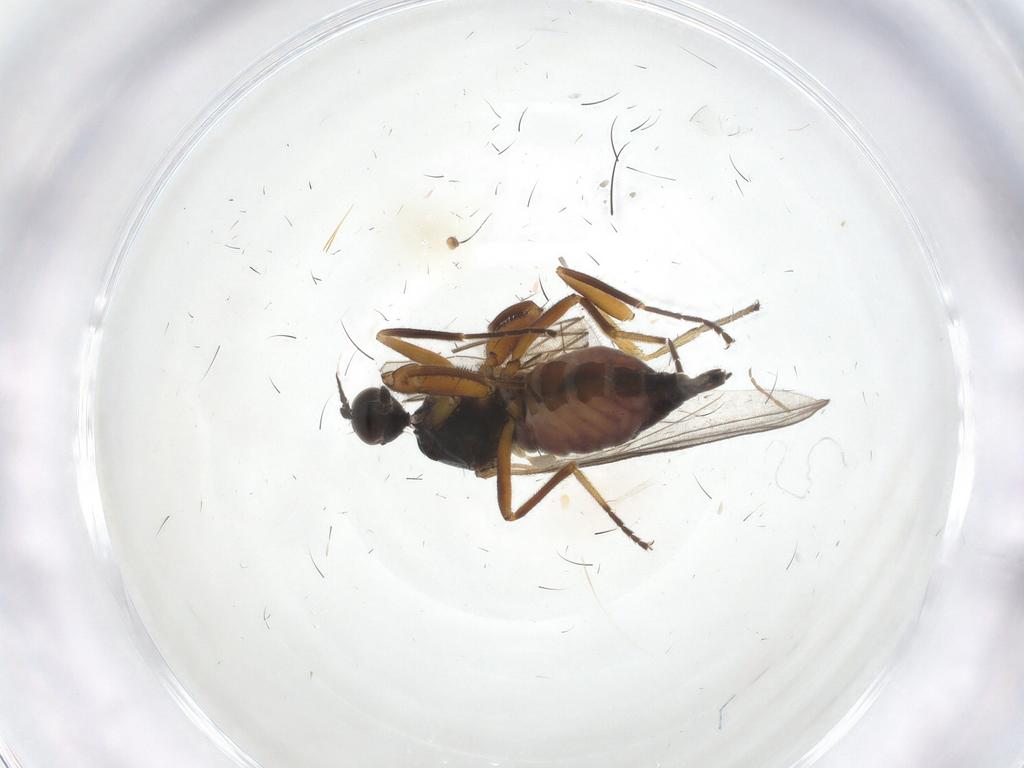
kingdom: Animalia
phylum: Arthropoda
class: Insecta
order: Diptera
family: Hybotidae
